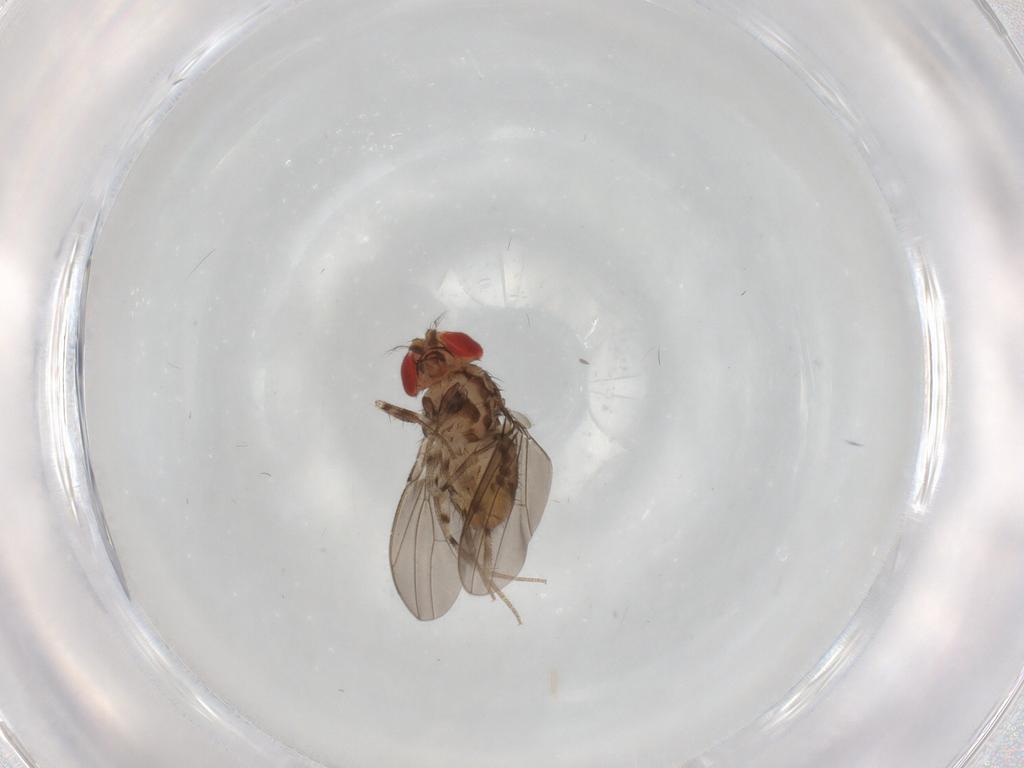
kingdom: Animalia
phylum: Arthropoda
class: Insecta
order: Diptera
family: Drosophilidae
